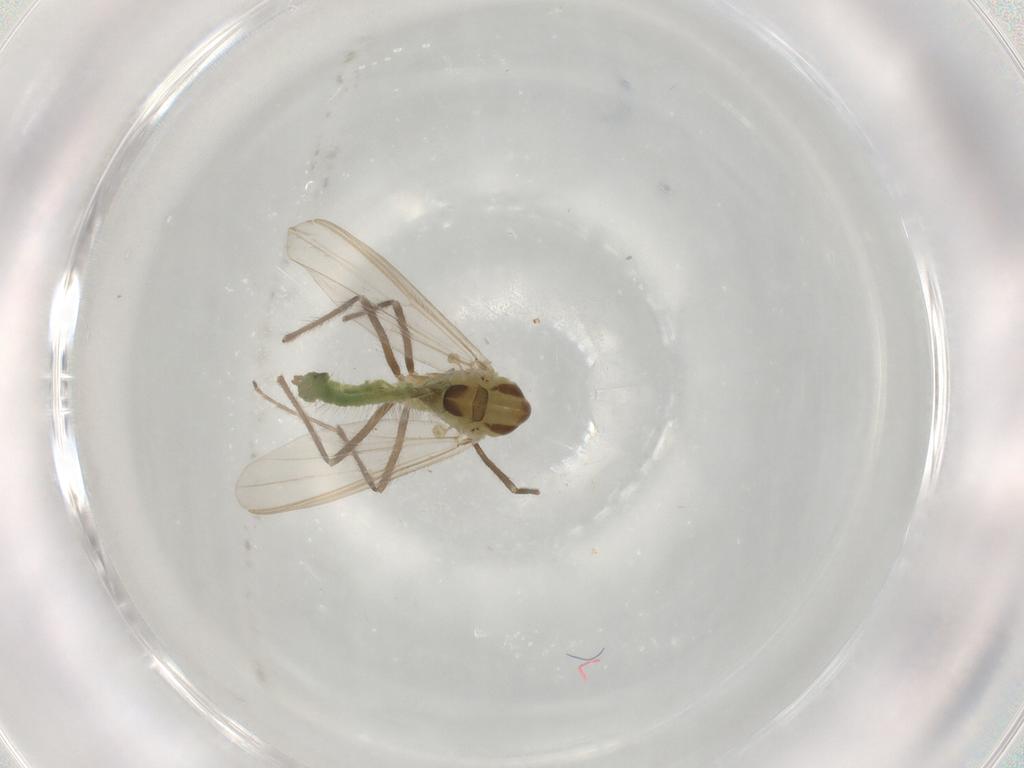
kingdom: Animalia
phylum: Arthropoda
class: Insecta
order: Diptera
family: Chironomidae
